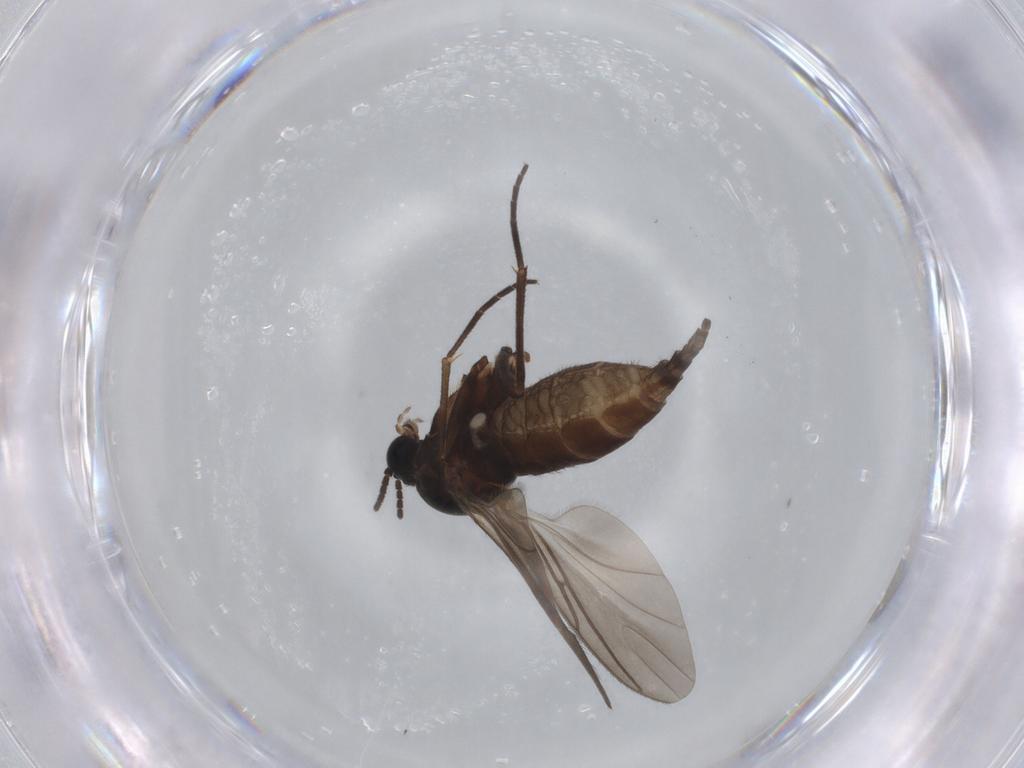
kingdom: Animalia
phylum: Arthropoda
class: Insecta
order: Diptera
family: Sciaridae
